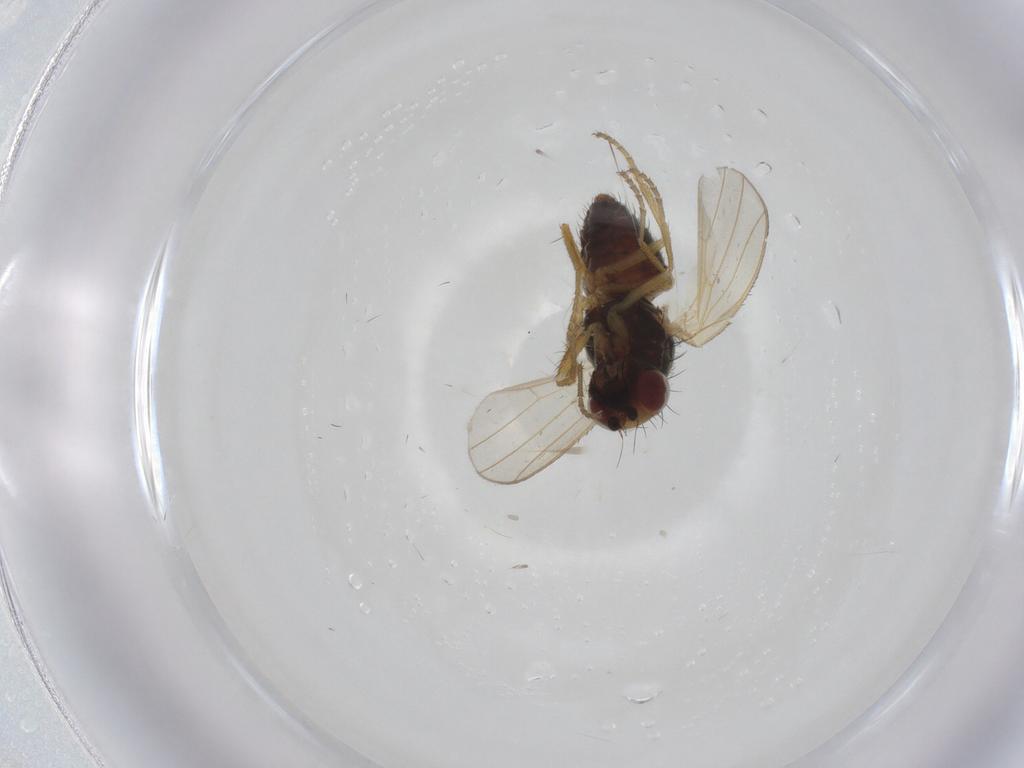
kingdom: Animalia
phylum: Arthropoda
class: Insecta
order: Diptera
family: Heleomyzidae
